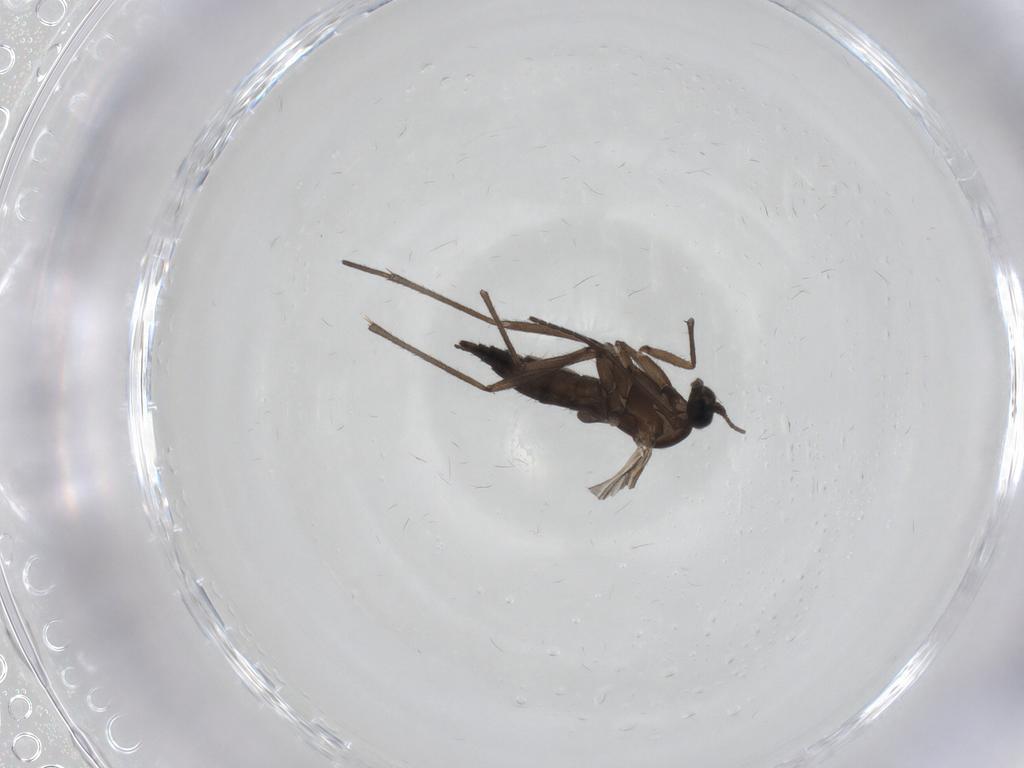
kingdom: Animalia
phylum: Arthropoda
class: Insecta
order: Diptera
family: Sciaridae
